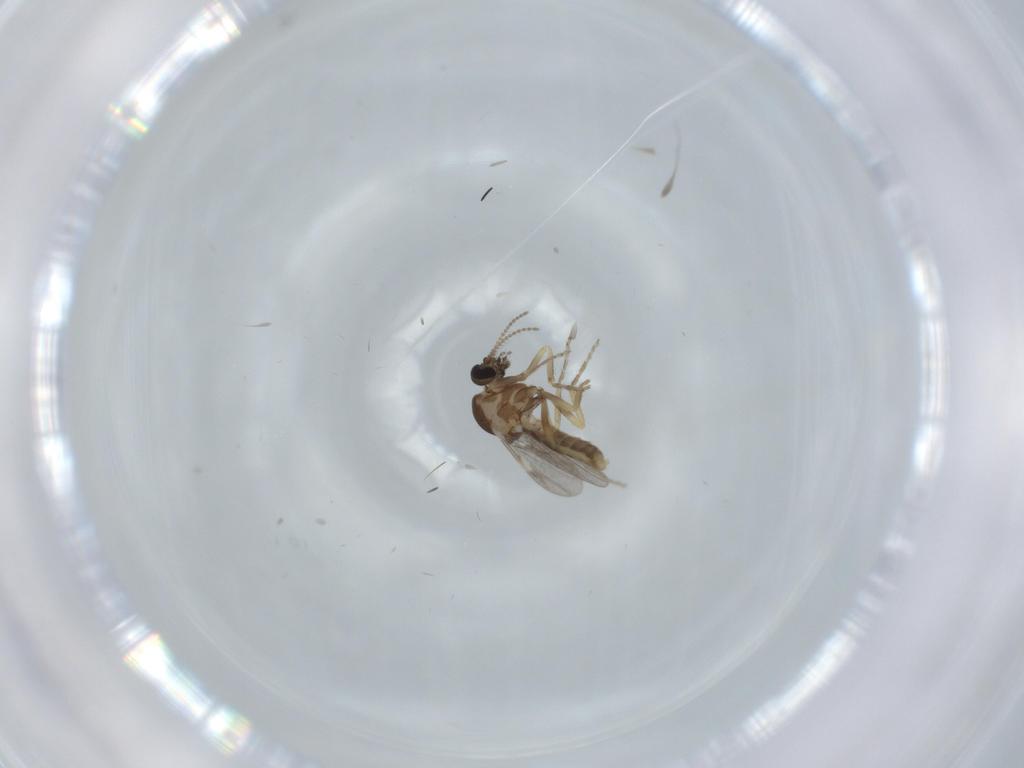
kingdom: Animalia
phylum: Arthropoda
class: Insecta
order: Diptera
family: Ceratopogonidae
